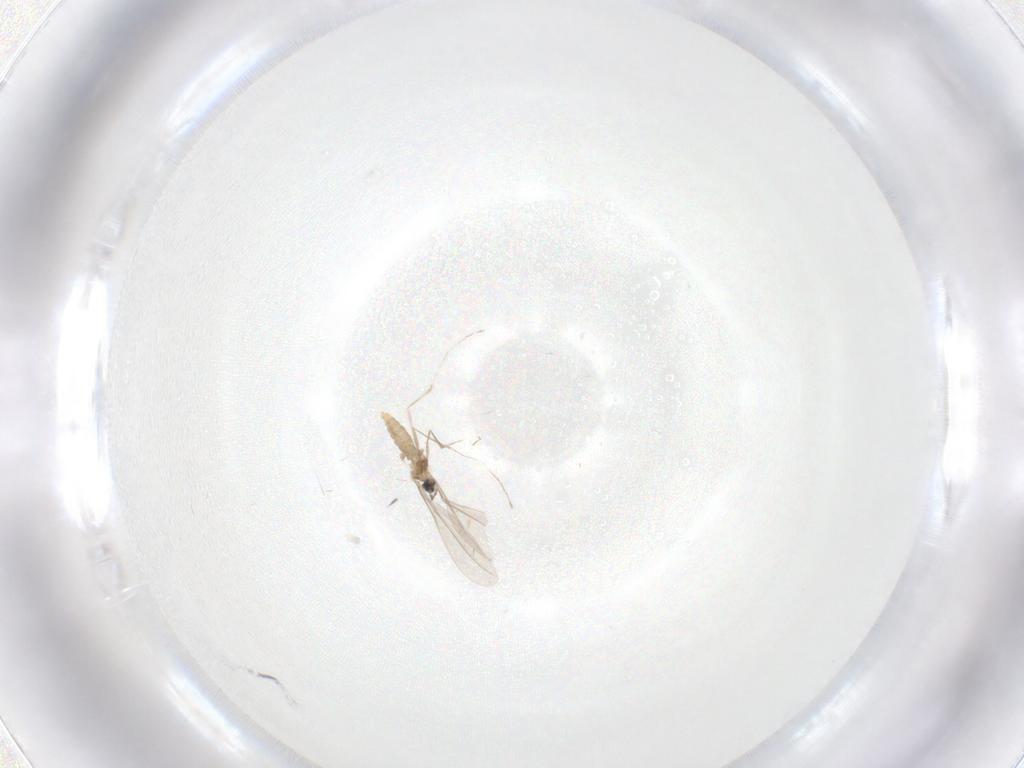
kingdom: Animalia
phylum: Arthropoda
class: Insecta
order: Diptera
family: Cecidomyiidae
